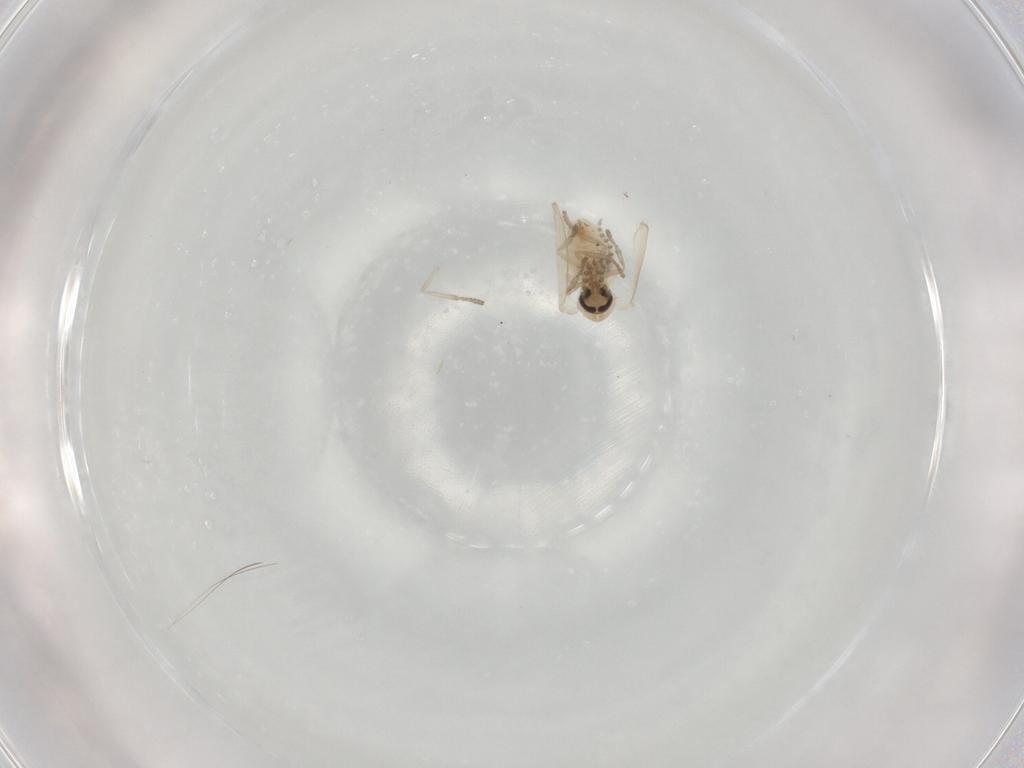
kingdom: Animalia
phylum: Arthropoda
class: Insecta
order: Diptera
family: Psychodidae
